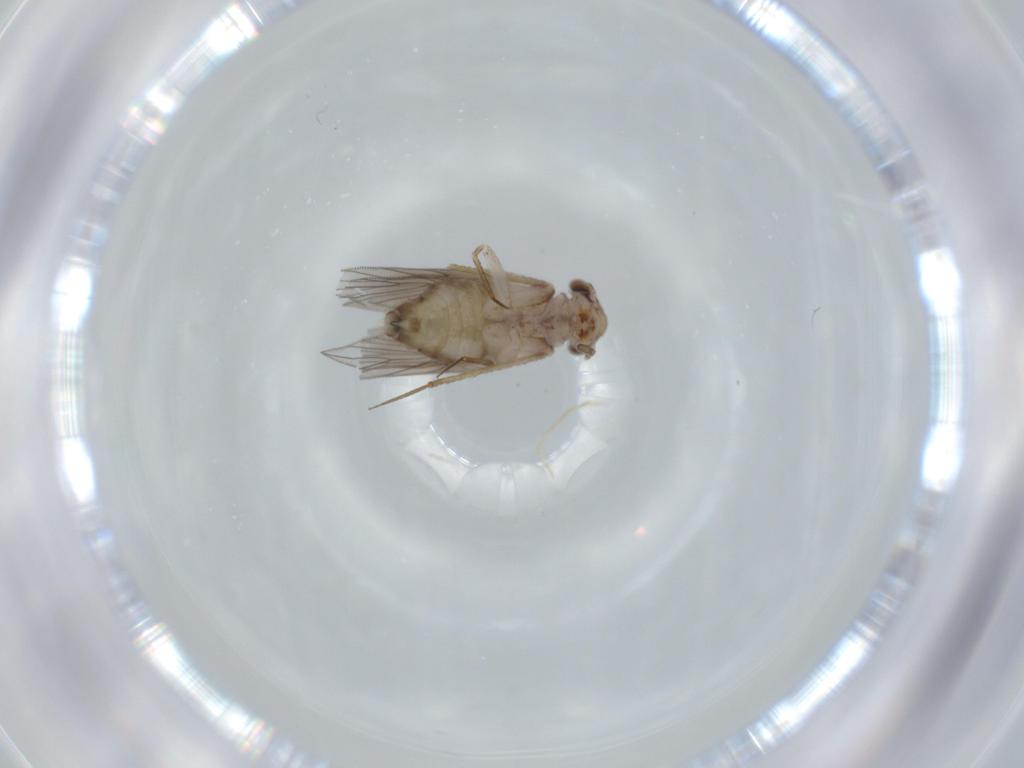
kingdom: Animalia
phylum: Arthropoda
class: Insecta
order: Psocodea
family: Lepidopsocidae
